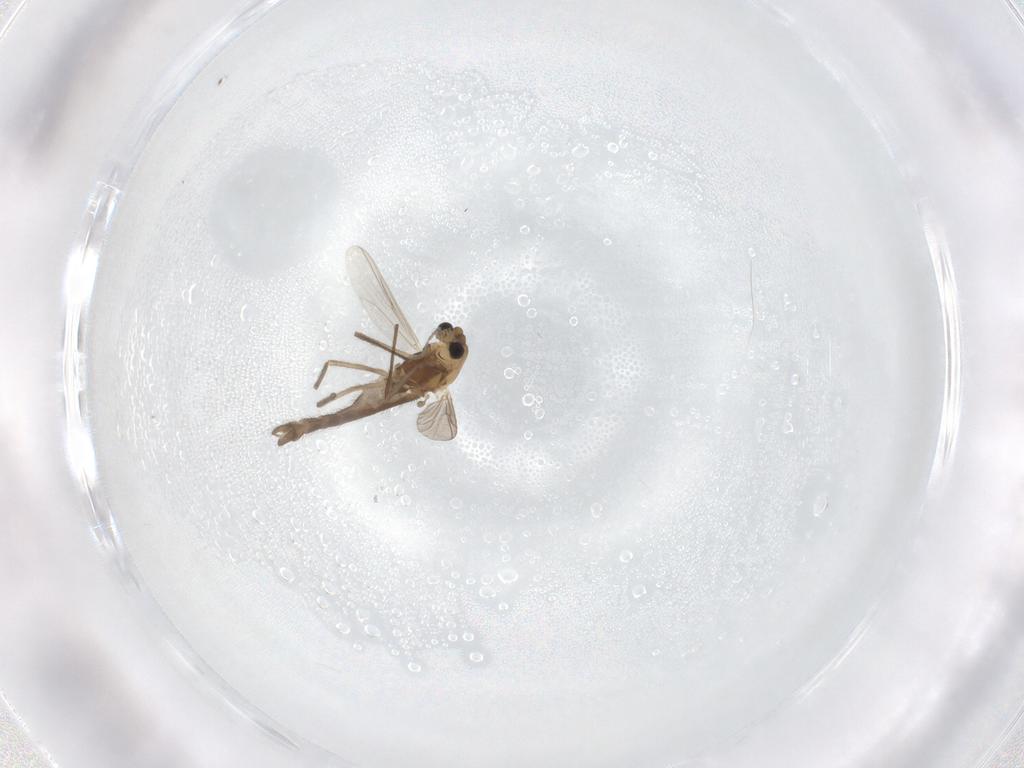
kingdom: Animalia
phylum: Arthropoda
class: Insecta
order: Diptera
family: Chironomidae
